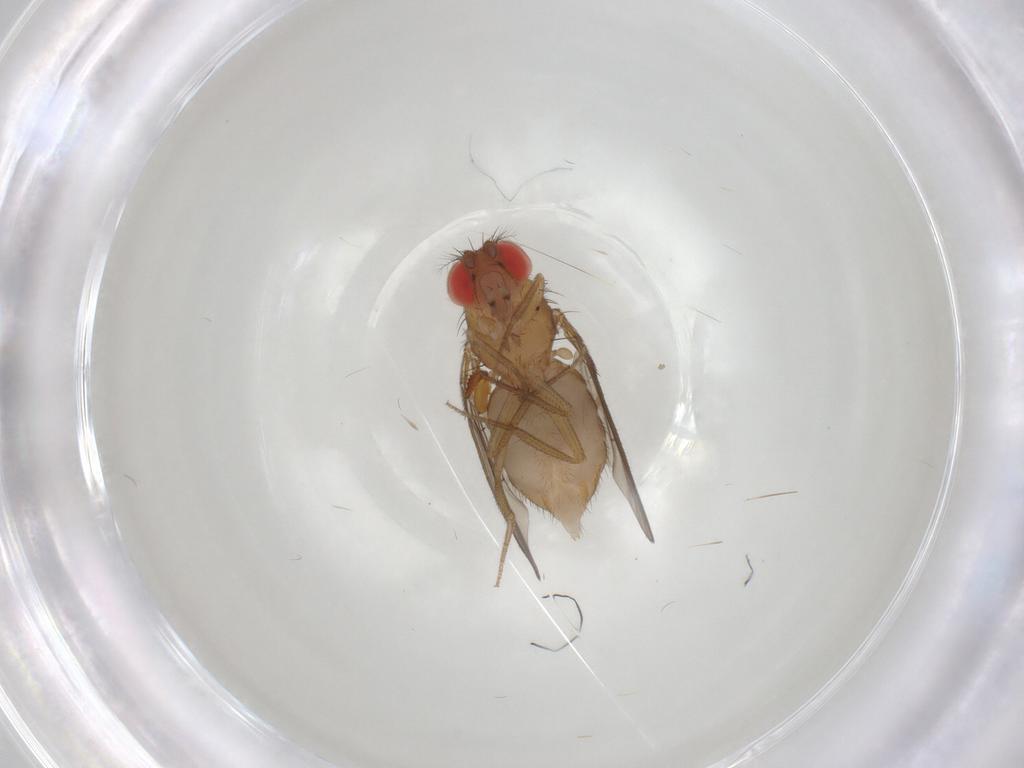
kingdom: Animalia
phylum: Arthropoda
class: Insecta
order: Diptera
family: Drosophilidae
